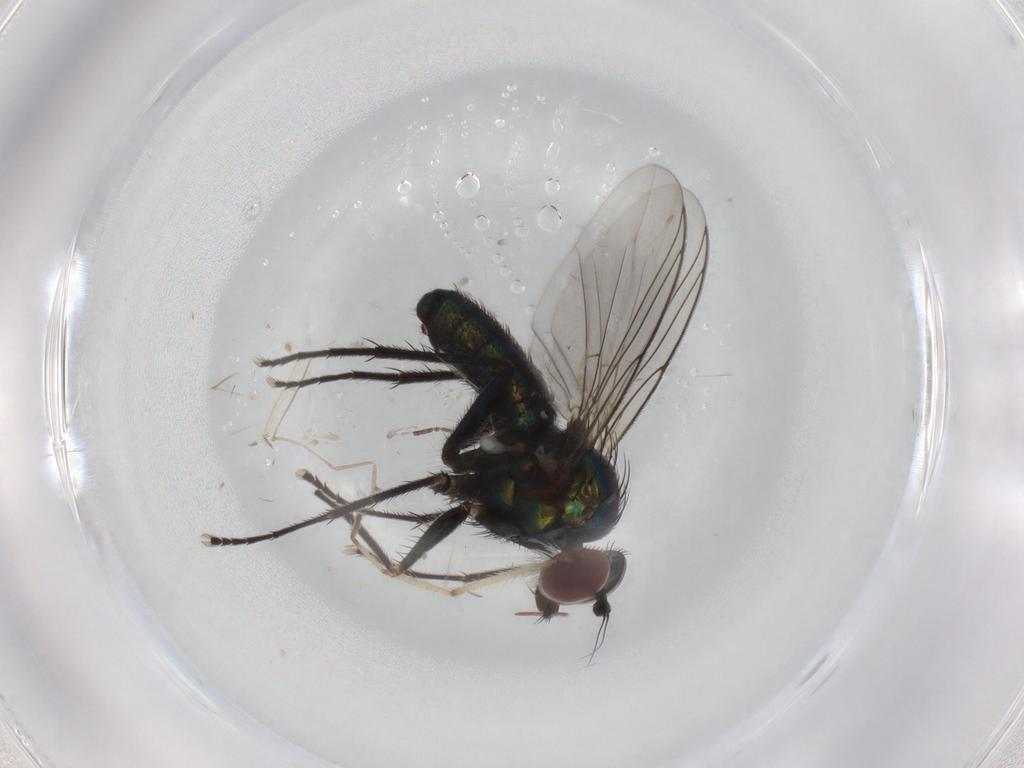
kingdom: Animalia
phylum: Arthropoda
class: Insecta
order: Diptera
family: Dolichopodidae
